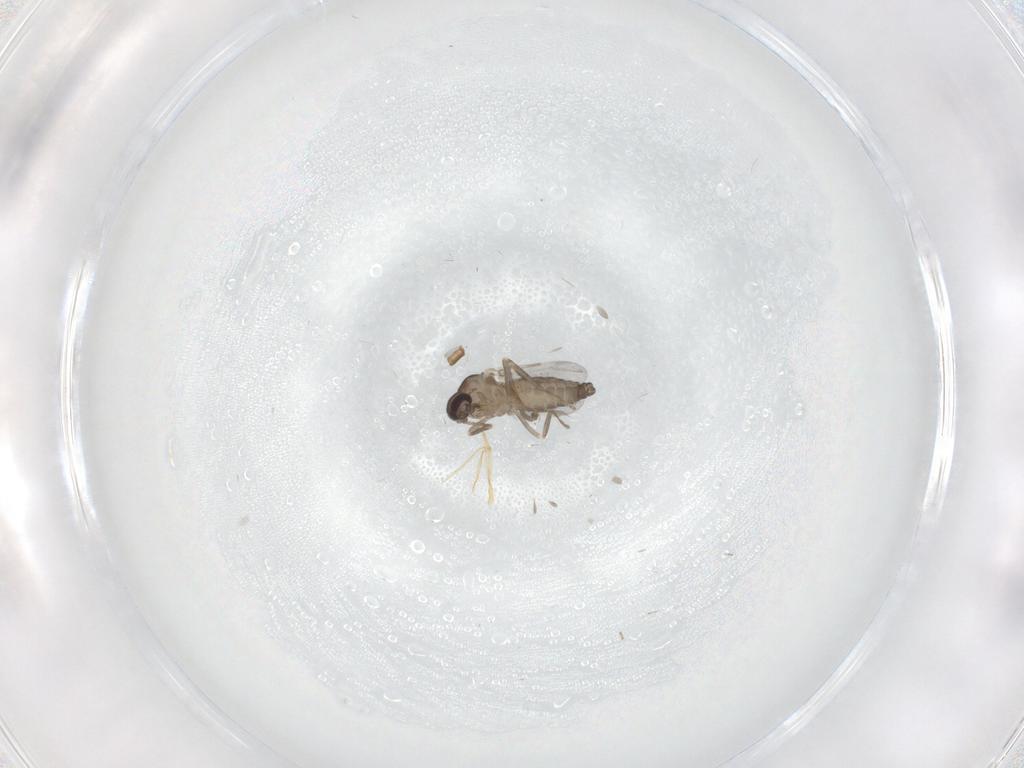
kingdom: Animalia
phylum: Arthropoda
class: Insecta
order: Diptera
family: Ceratopogonidae
